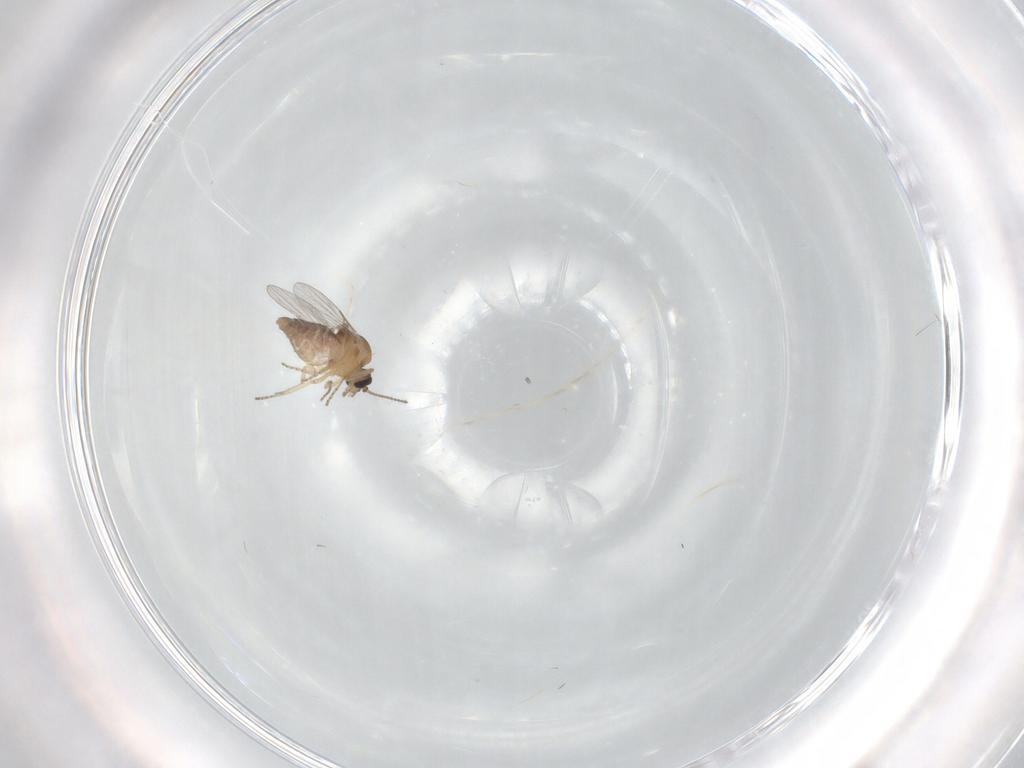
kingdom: Animalia
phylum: Arthropoda
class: Insecta
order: Diptera
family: Ceratopogonidae
